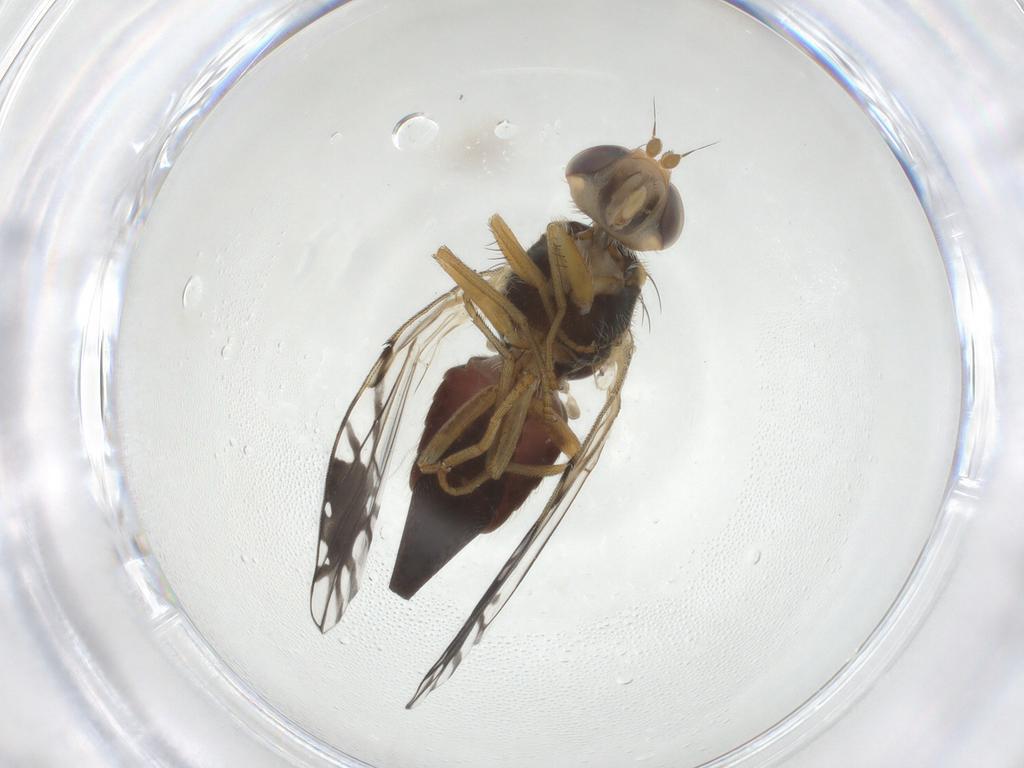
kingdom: Animalia
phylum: Arthropoda
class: Insecta
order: Diptera
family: Tephritidae
